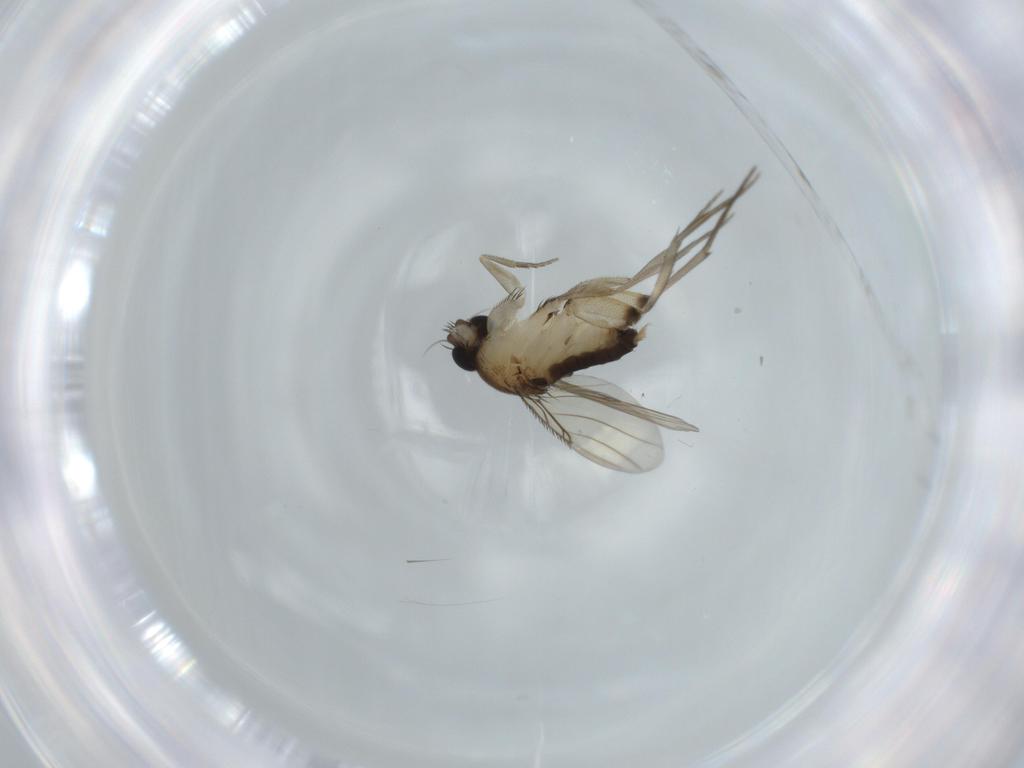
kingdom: Animalia
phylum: Arthropoda
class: Insecta
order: Diptera
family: Phoridae
